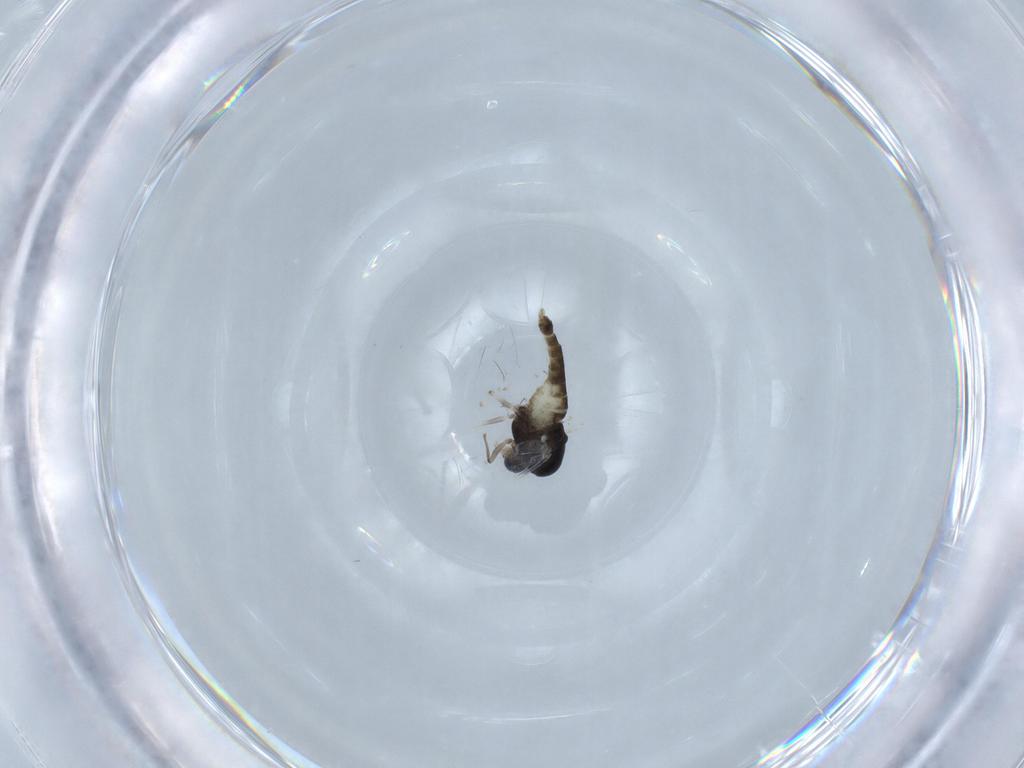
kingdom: Animalia
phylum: Arthropoda
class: Insecta
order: Diptera
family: Chironomidae
